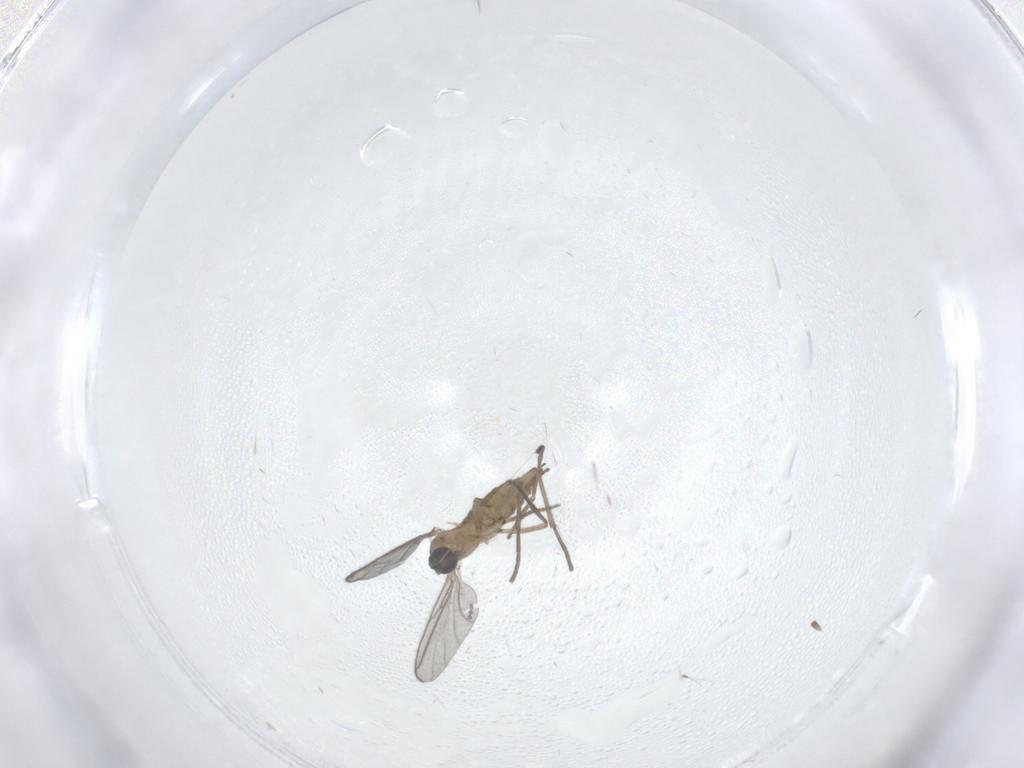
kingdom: Animalia
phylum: Arthropoda
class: Insecta
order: Diptera
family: Sciaridae
